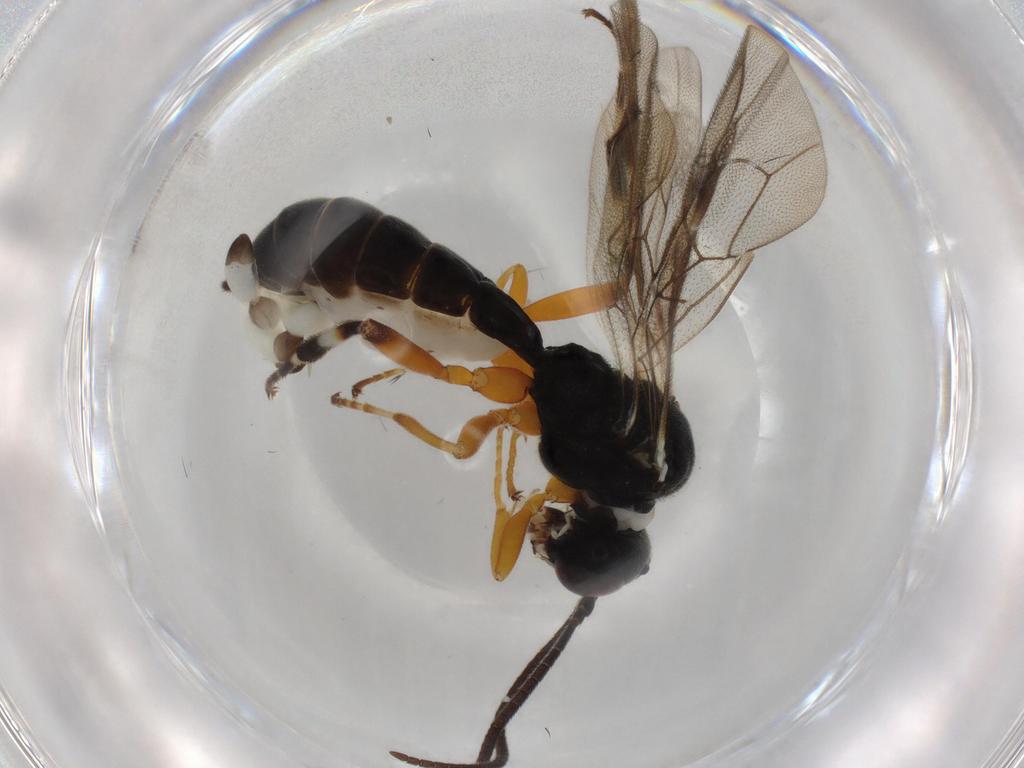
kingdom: Animalia
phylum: Arthropoda
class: Insecta
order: Hymenoptera
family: Ichneumonidae
